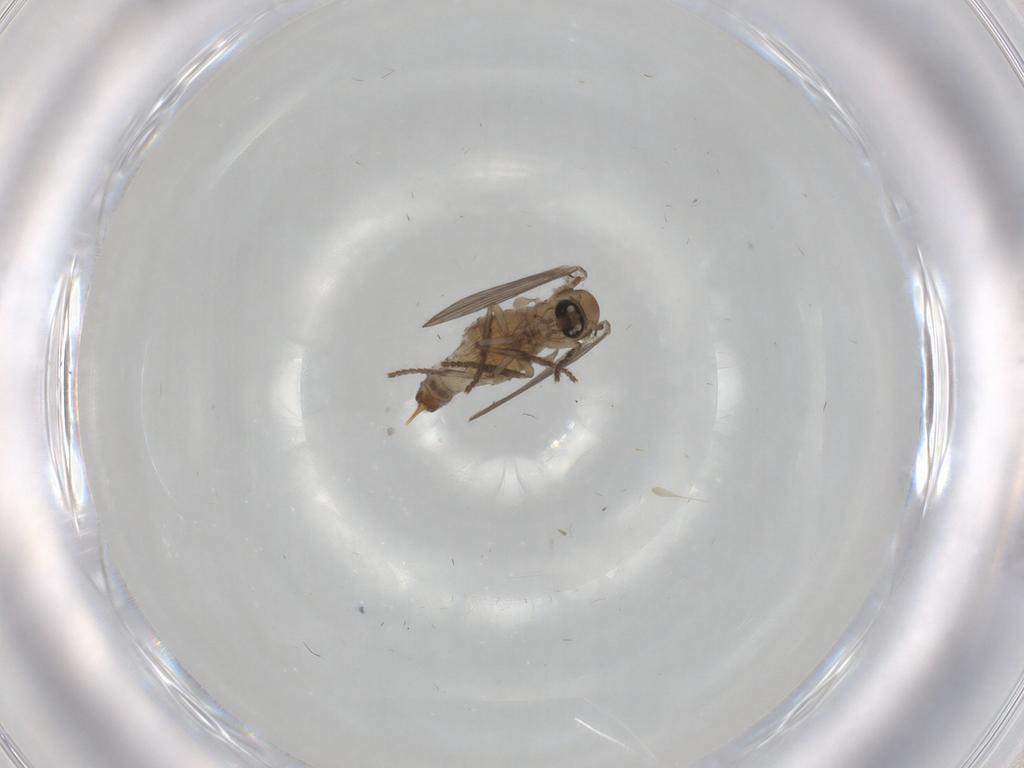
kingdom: Animalia
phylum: Arthropoda
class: Insecta
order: Diptera
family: Psychodidae
